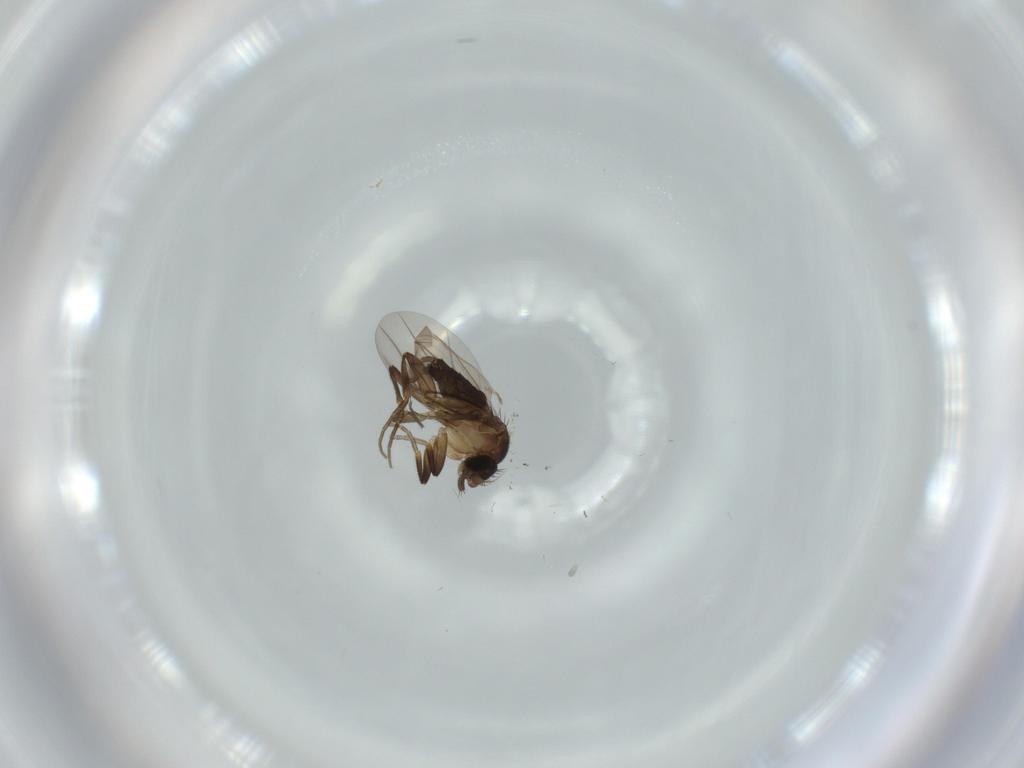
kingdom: Animalia
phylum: Arthropoda
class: Insecta
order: Diptera
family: Phoridae
